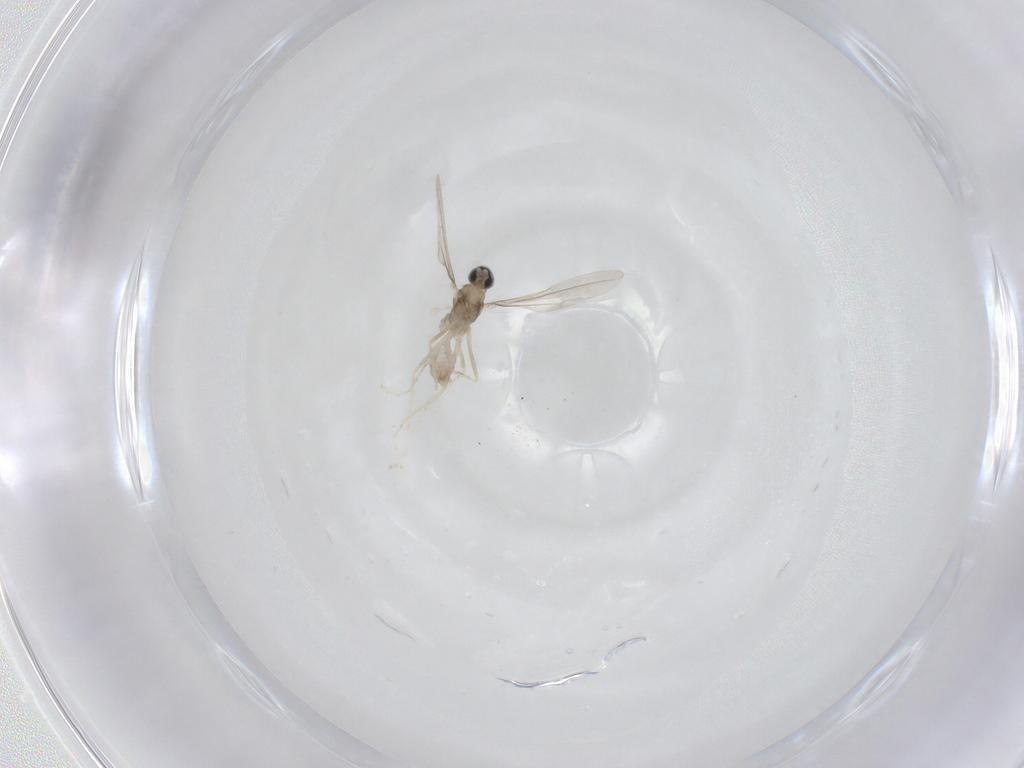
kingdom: Animalia
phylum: Arthropoda
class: Insecta
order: Diptera
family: Cecidomyiidae
